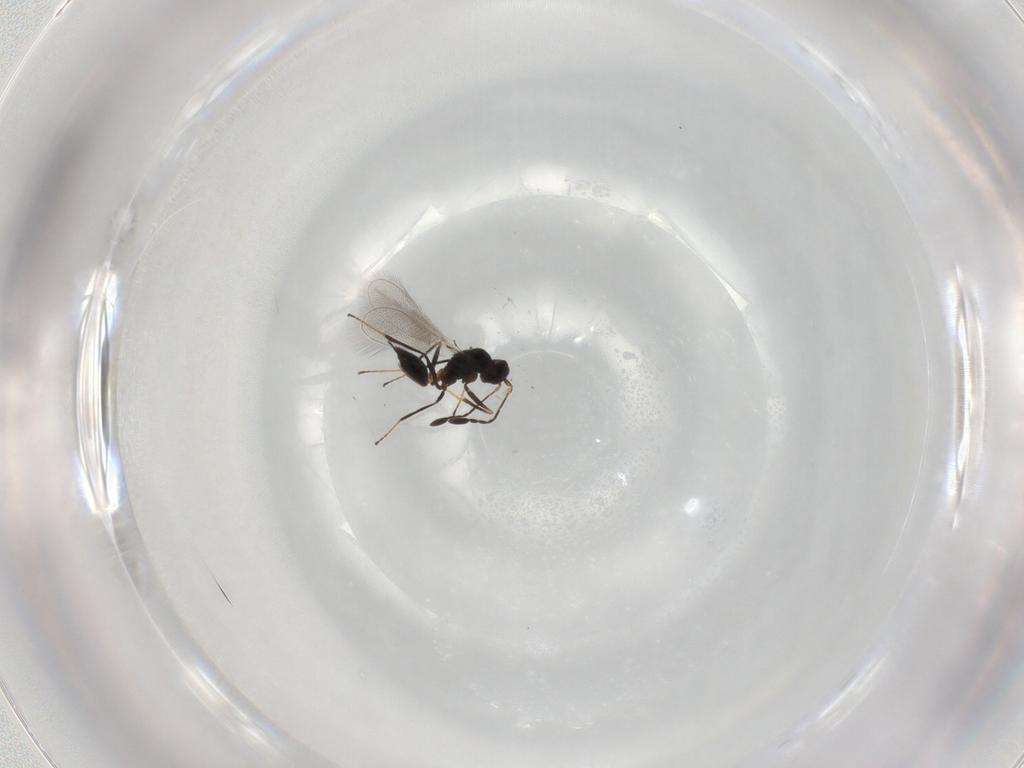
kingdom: Animalia
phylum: Arthropoda
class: Insecta
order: Hymenoptera
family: Mymaridae
